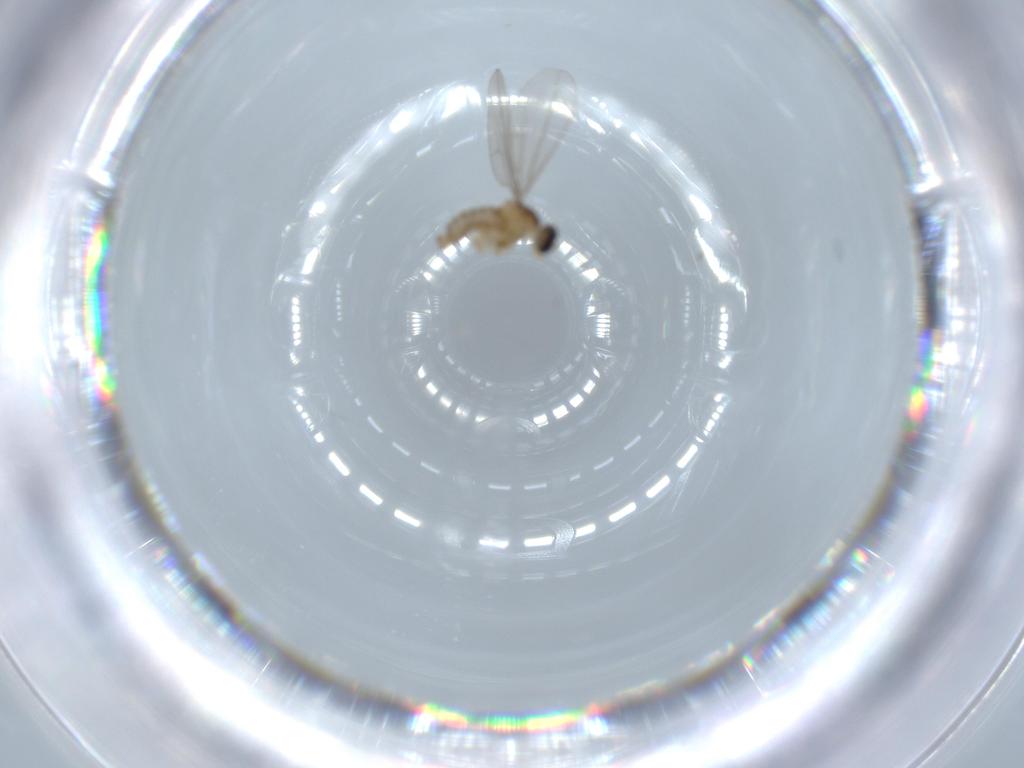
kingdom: Animalia
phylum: Arthropoda
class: Insecta
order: Diptera
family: Cecidomyiidae
